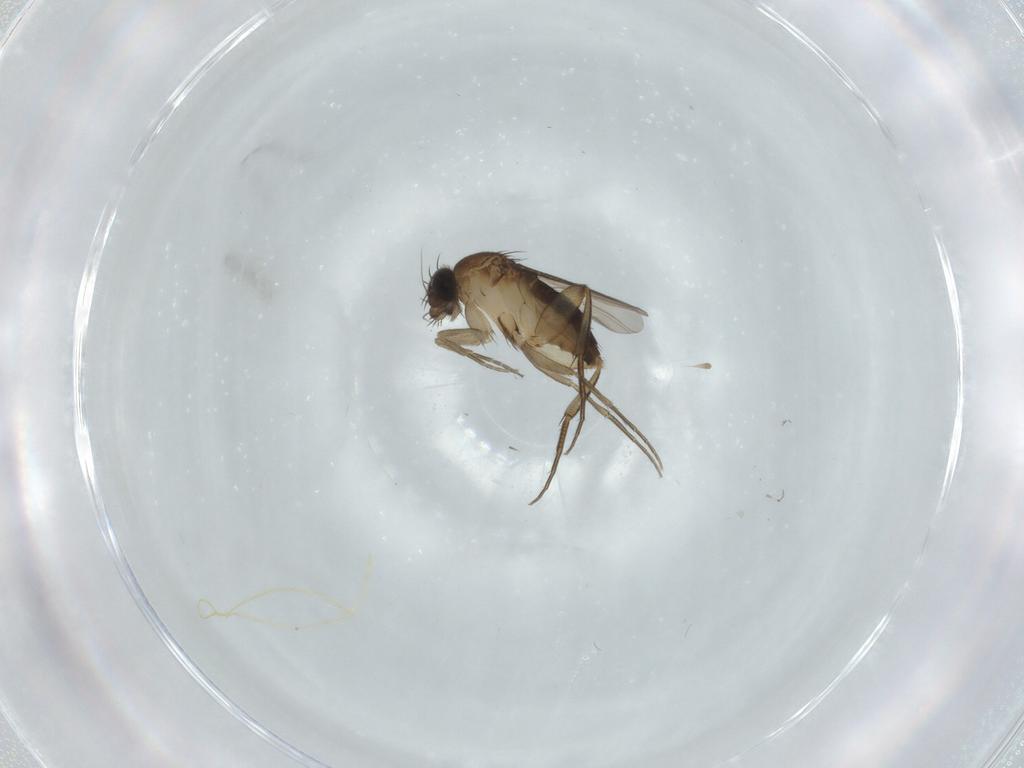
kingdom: Animalia
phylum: Arthropoda
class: Insecta
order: Diptera
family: Phoridae
